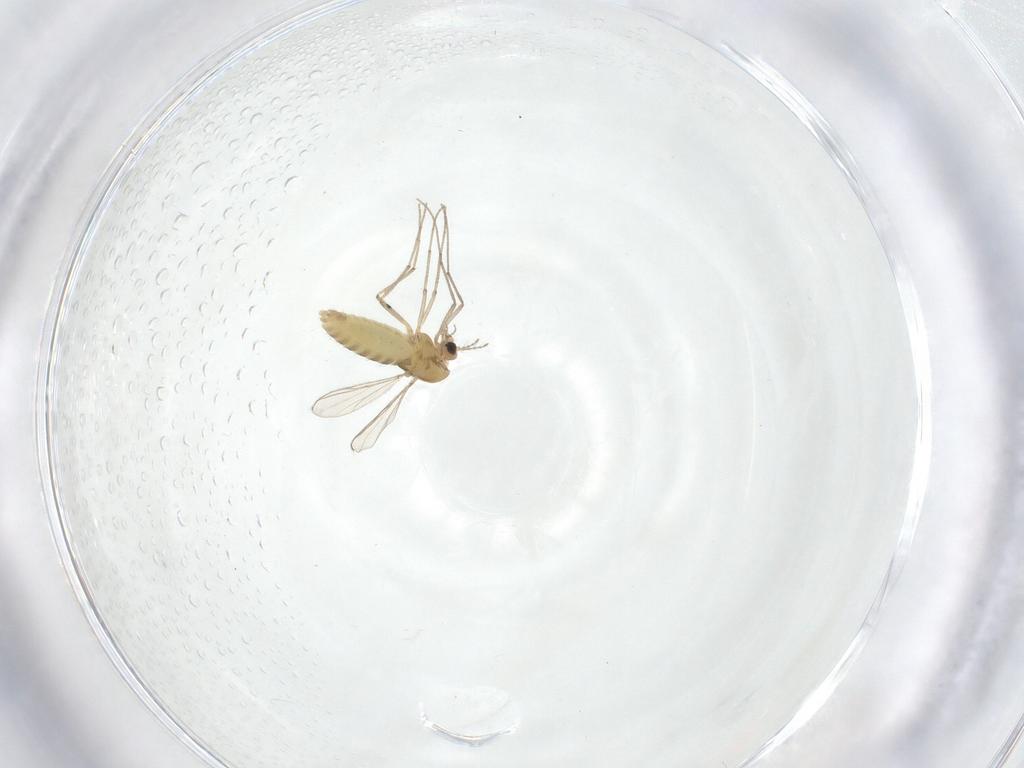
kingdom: Animalia
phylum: Arthropoda
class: Insecta
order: Diptera
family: Chironomidae
